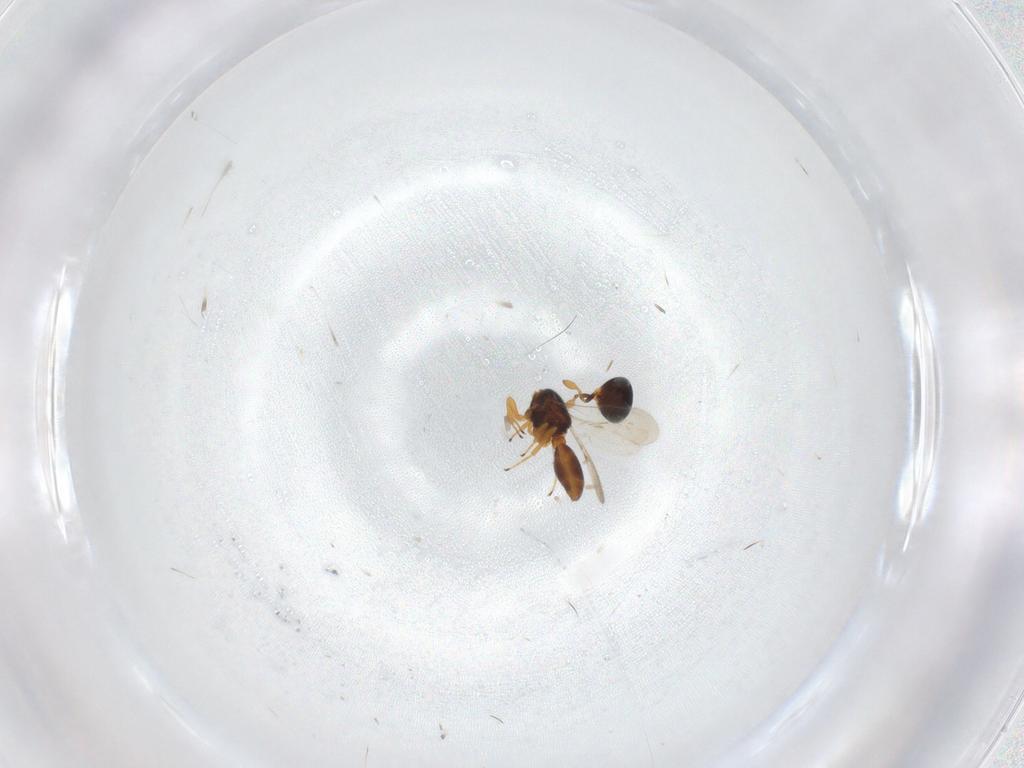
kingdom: Animalia
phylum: Arthropoda
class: Insecta
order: Hymenoptera
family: Scelionidae
